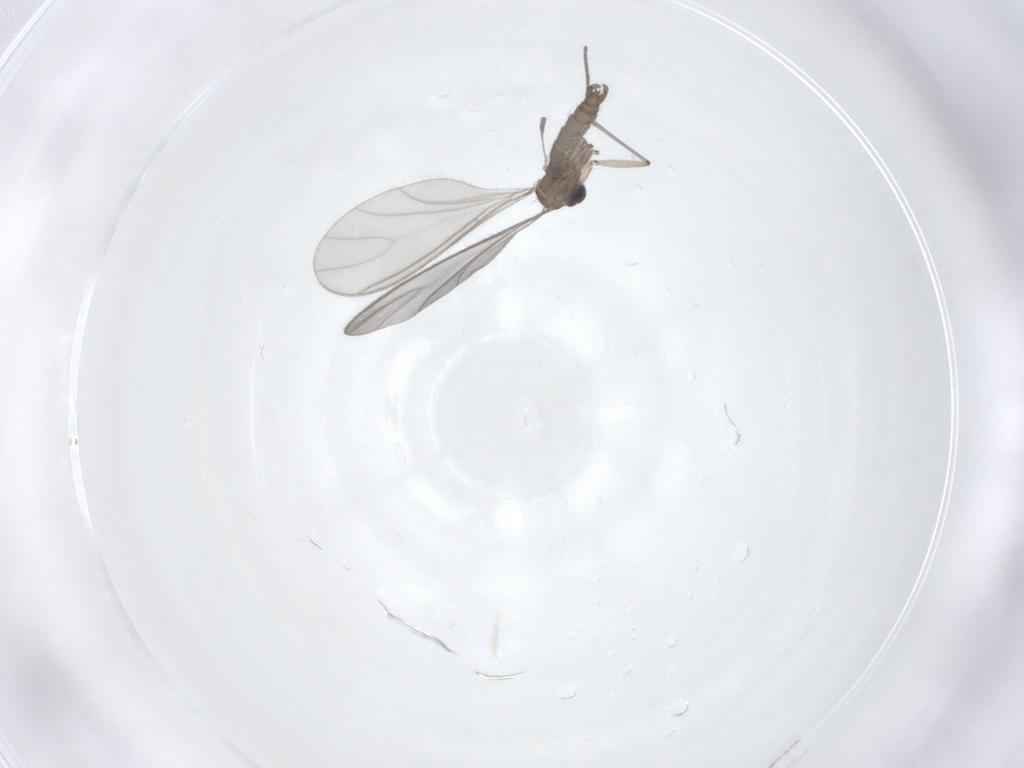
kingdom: Animalia
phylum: Arthropoda
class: Insecta
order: Diptera
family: Sciaridae
